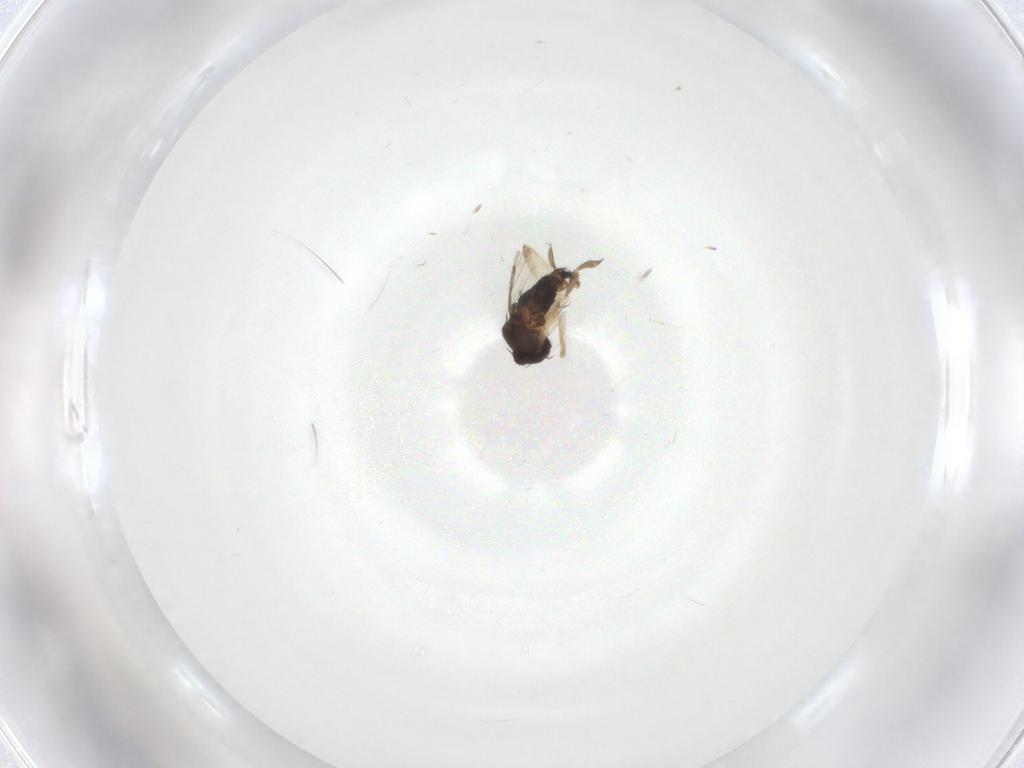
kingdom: Animalia
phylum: Arthropoda
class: Insecta
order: Diptera
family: Phoridae
